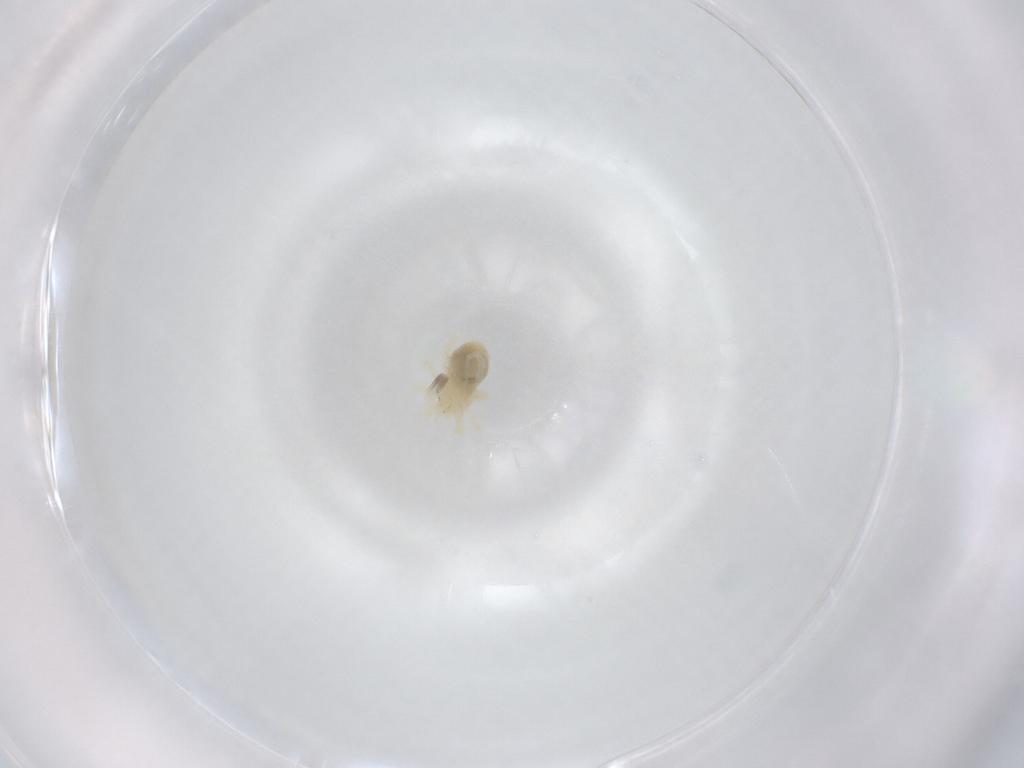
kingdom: Animalia
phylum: Arthropoda
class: Arachnida
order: Trombidiformes
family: Anystidae
